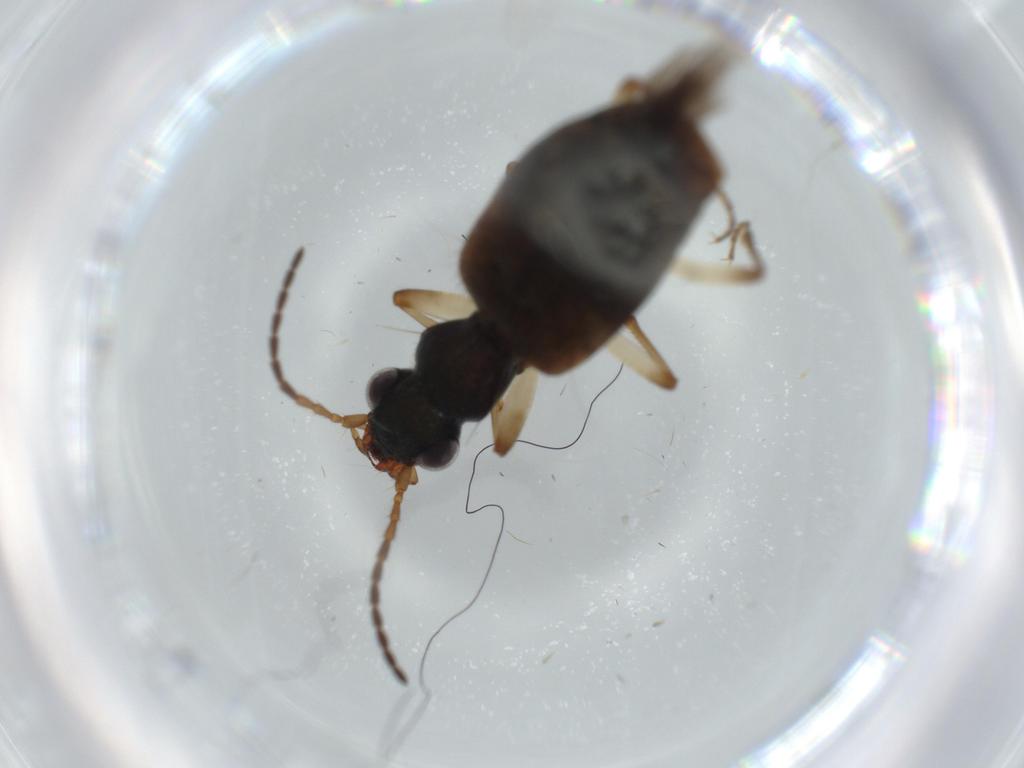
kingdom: Animalia
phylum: Arthropoda
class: Insecta
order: Coleoptera
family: Carabidae
